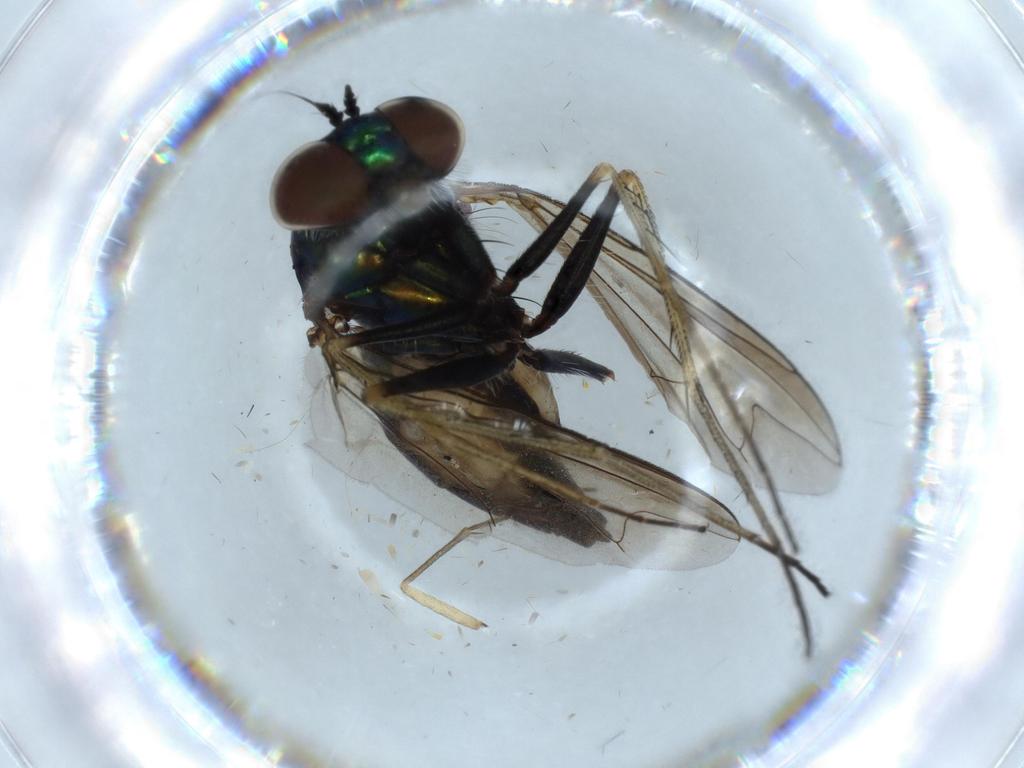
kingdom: Animalia
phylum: Arthropoda
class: Insecta
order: Diptera
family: Dolichopodidae
